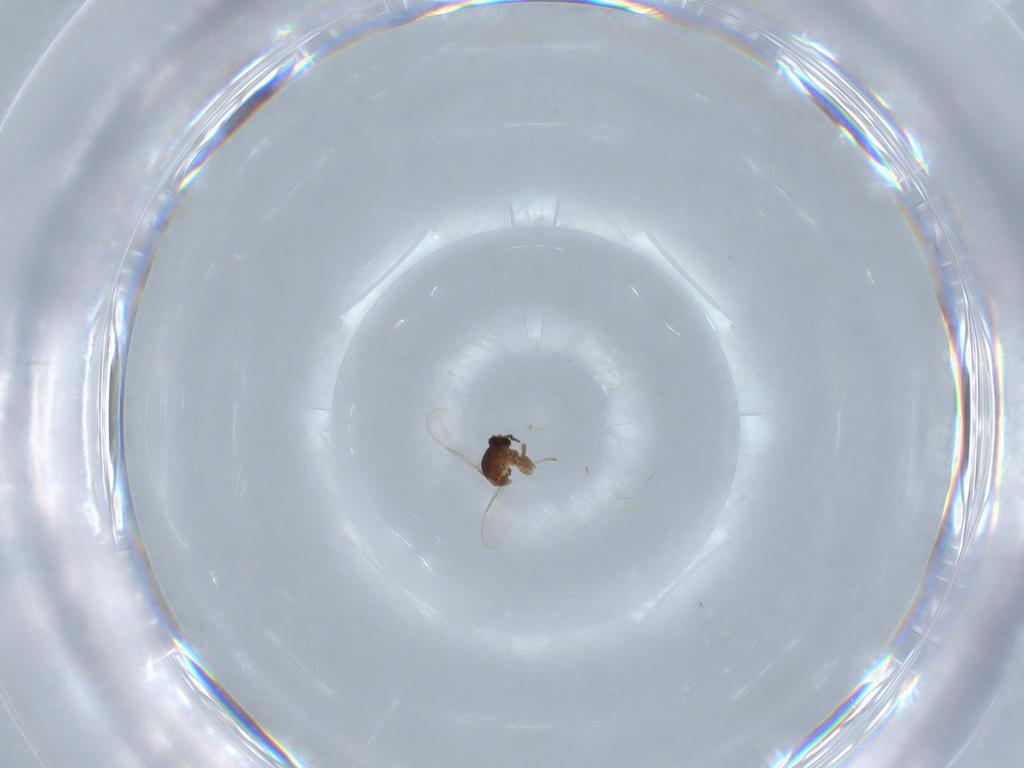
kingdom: Animalia
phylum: Arthropoda
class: Insecta
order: Diptera
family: Ceratopogonidae
